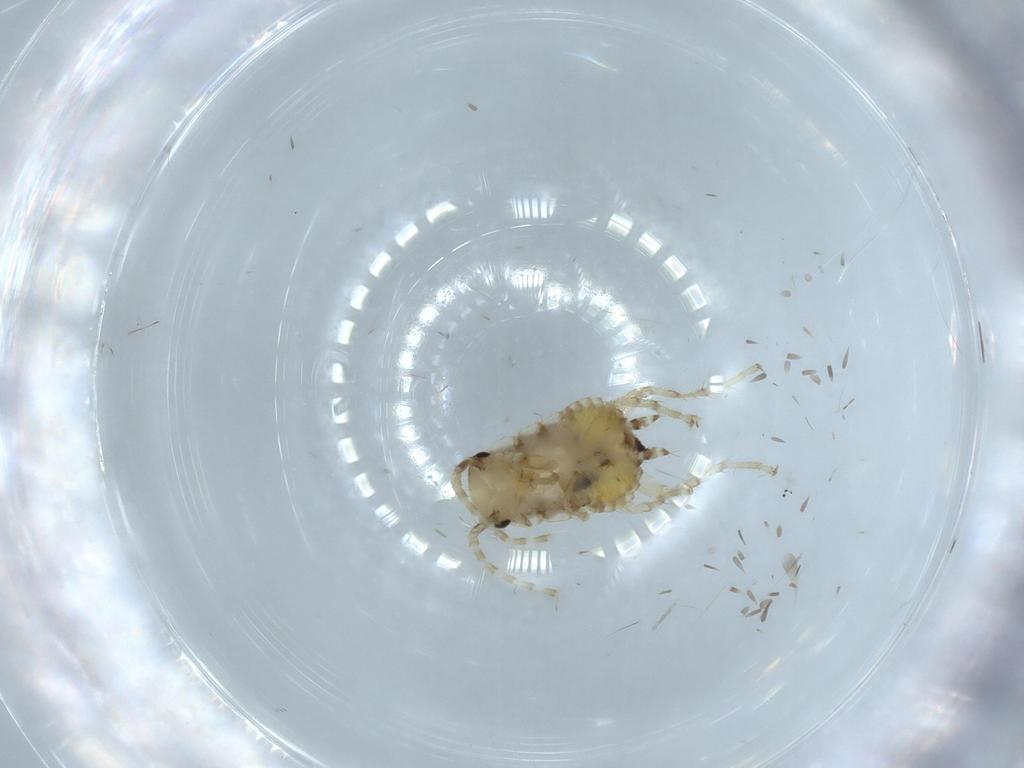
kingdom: Animalia
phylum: Arthropoda
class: Insecta
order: Blattodea
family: Ectobiidae
